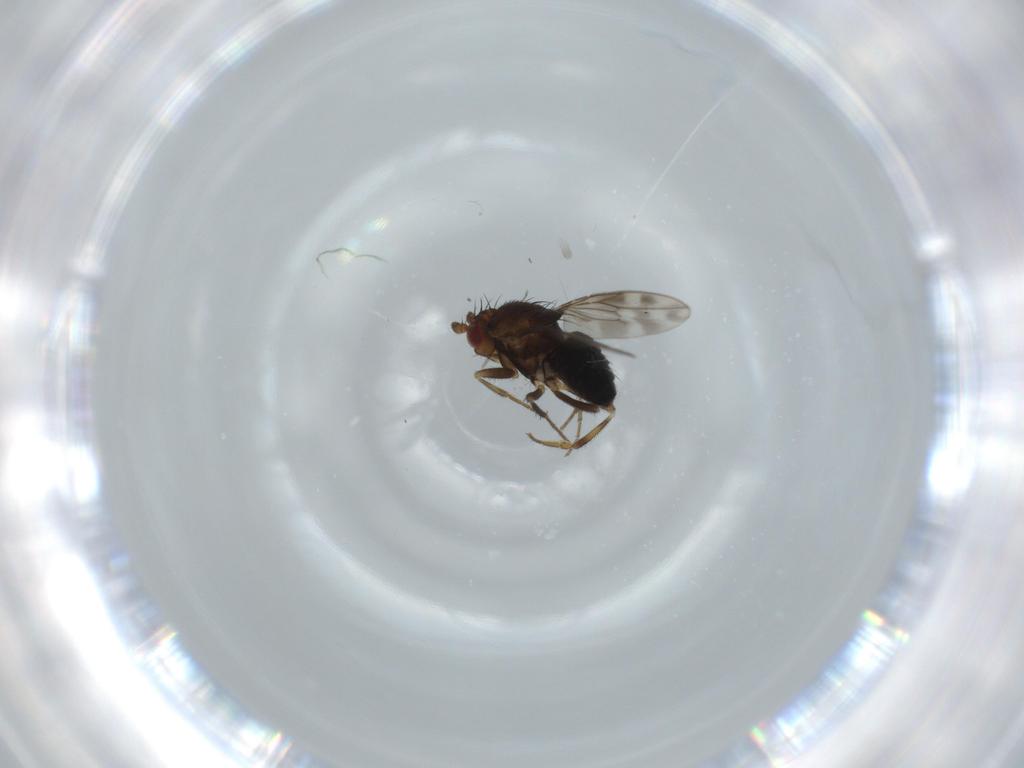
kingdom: Animalia
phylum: Arthropoda
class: Insecta
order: Diptera
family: Sphaeroceridae
